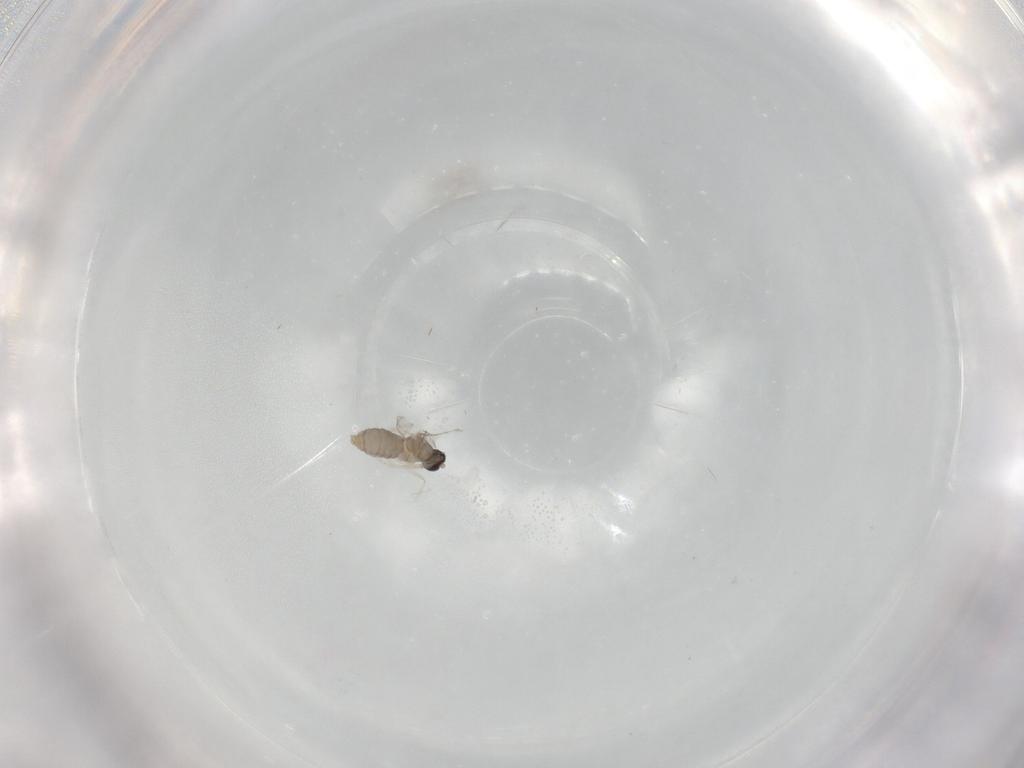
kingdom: Animalia
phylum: Arthropoda
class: Insecta
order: Diptera
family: Cecidomyiidae
